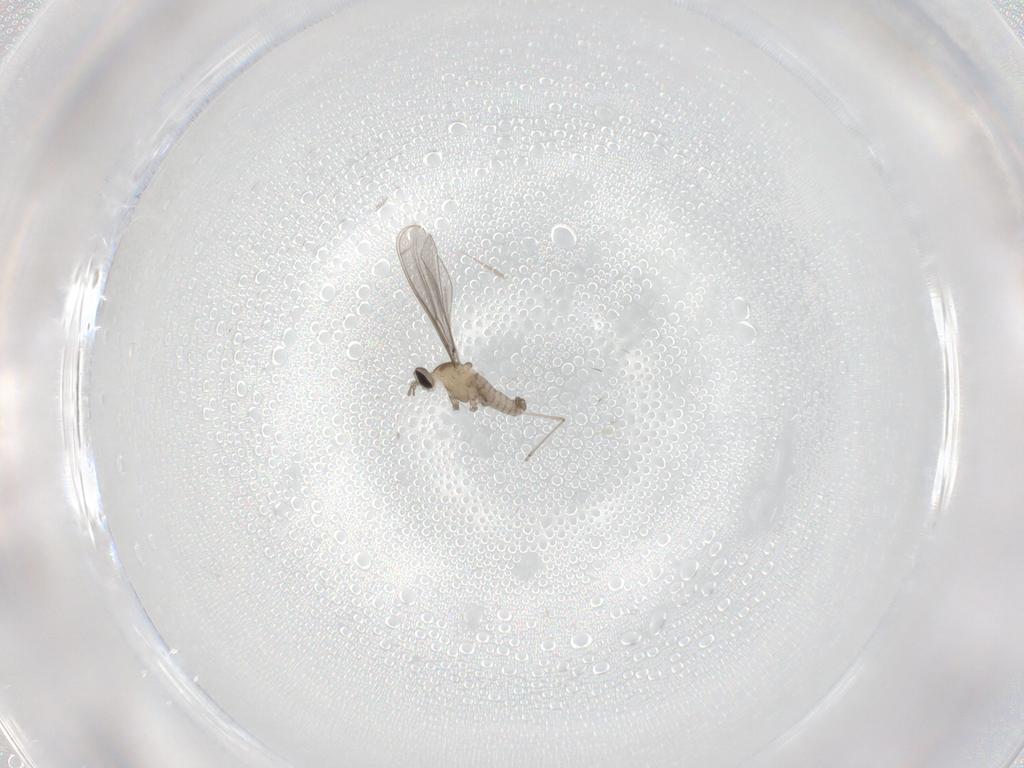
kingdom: Animalia
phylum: Arthropoda
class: Insecta
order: Diptera
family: Cecidomyiidae
